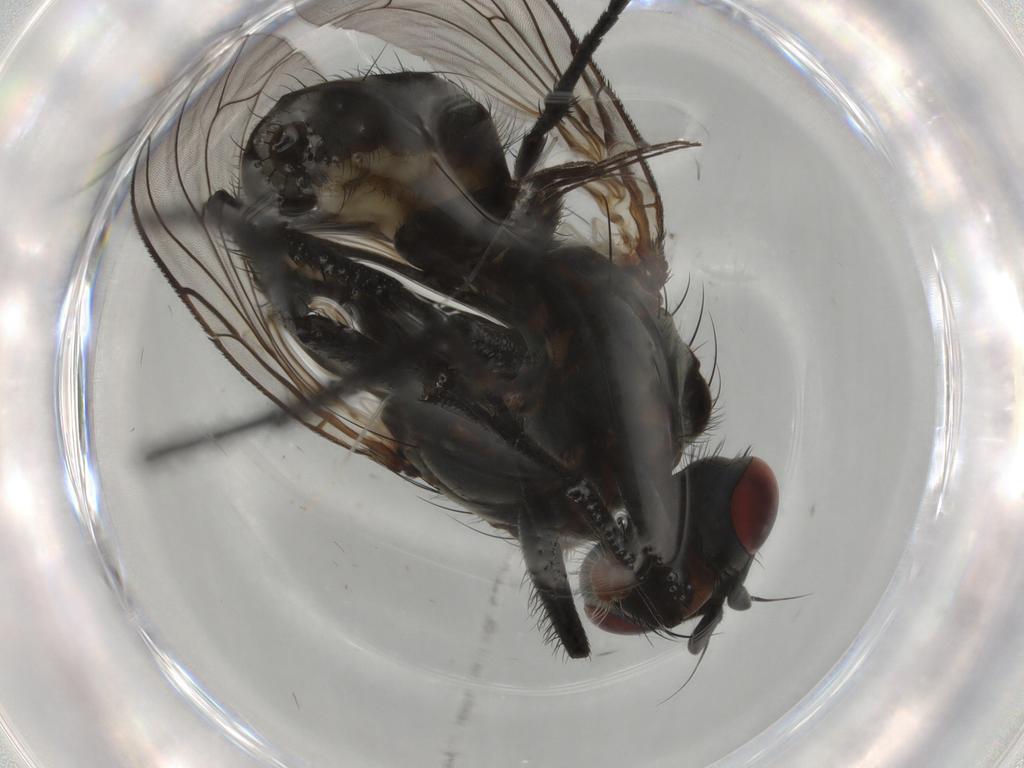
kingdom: Animalia
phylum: Arthropoda
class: Insecta
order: Diptera
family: Anthomyiidae
